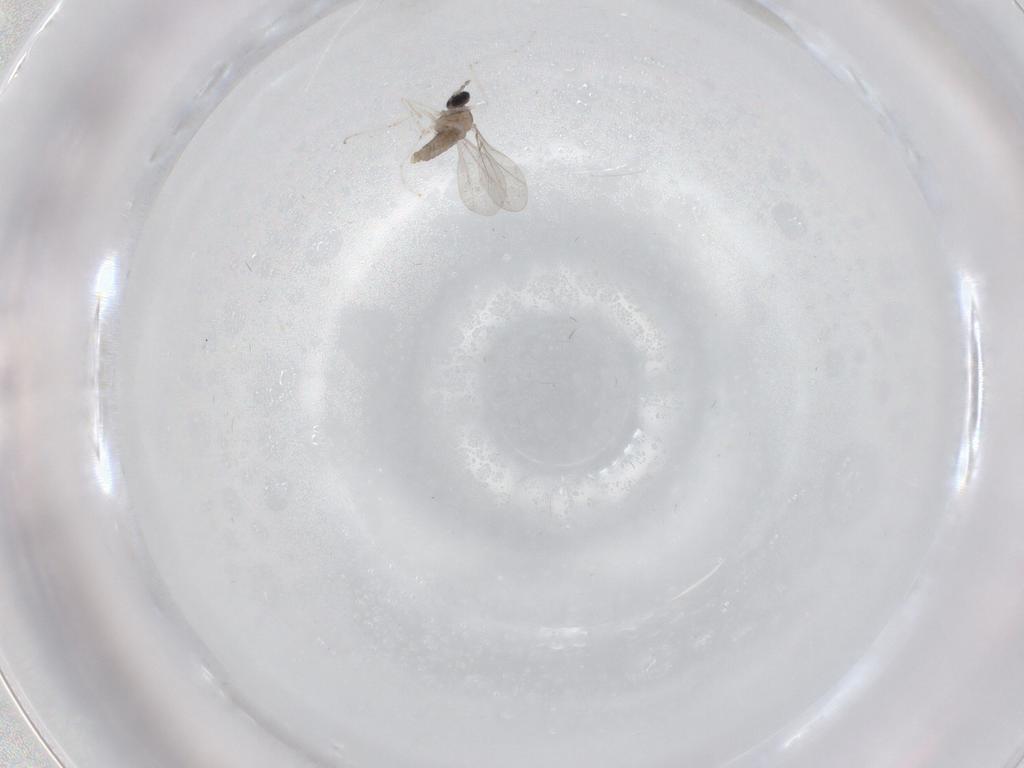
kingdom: Animalia
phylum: Arthropoda
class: Insecta
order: Diptera
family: Cecidomyiidae
